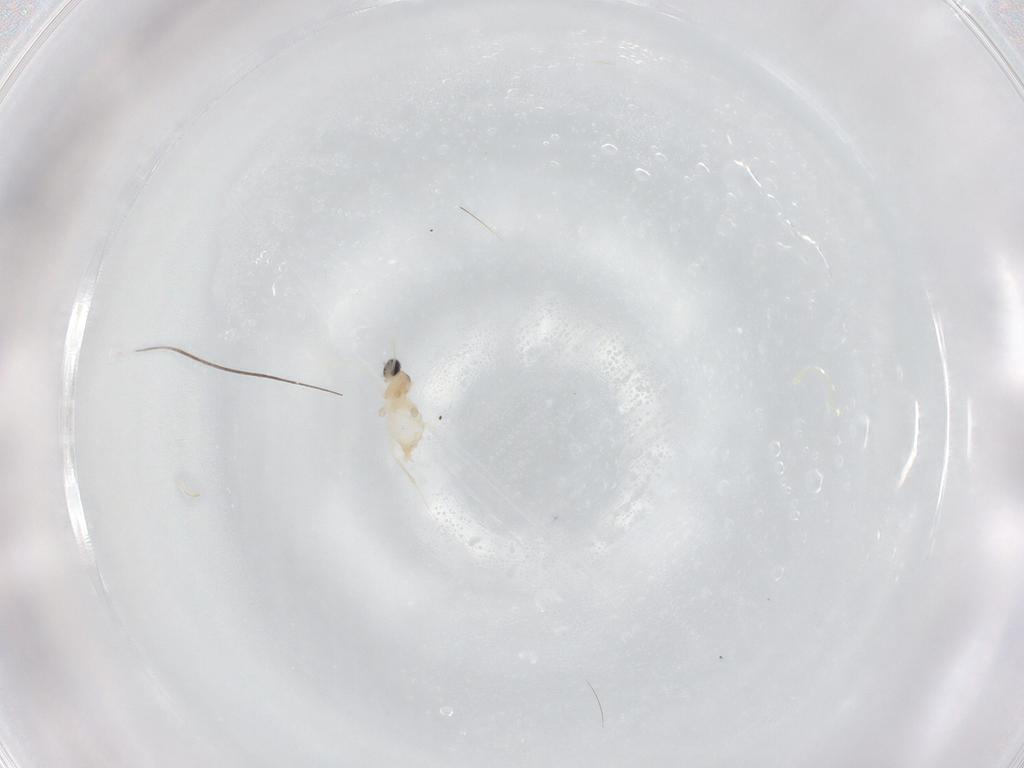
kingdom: Animalia
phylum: Arthropoda
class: Insecta
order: Diptera
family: Cecidomyiidae
